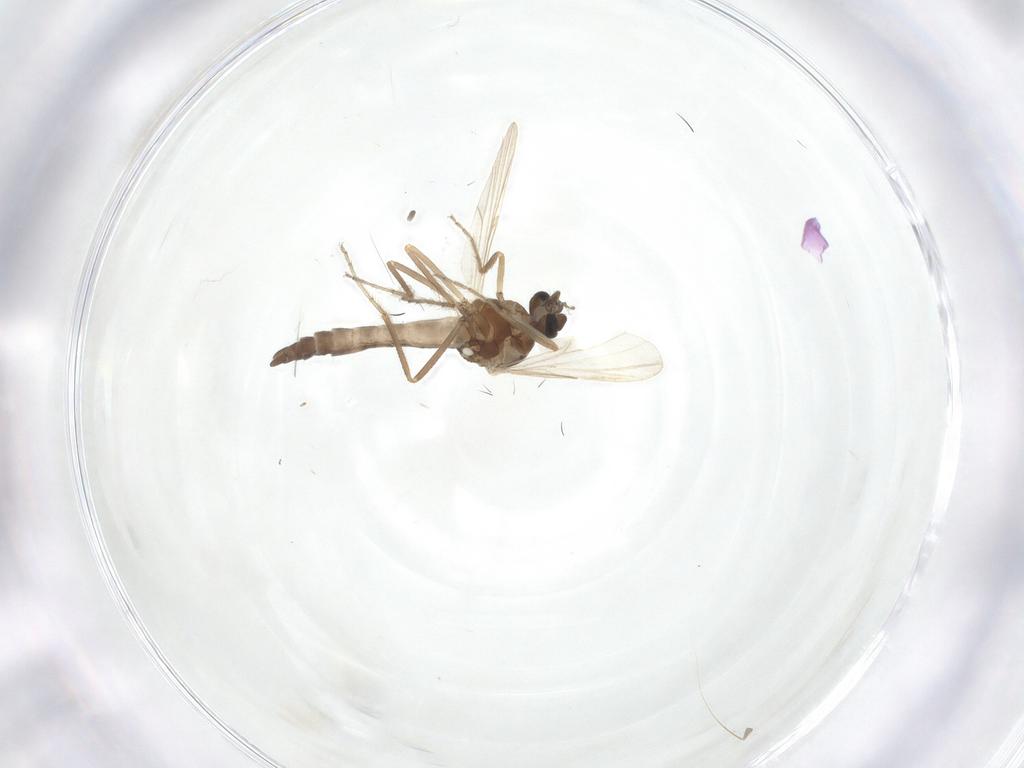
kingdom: Animalia
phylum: Arthropoda
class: Insecta
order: Diptera
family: Ceratopogonidae
